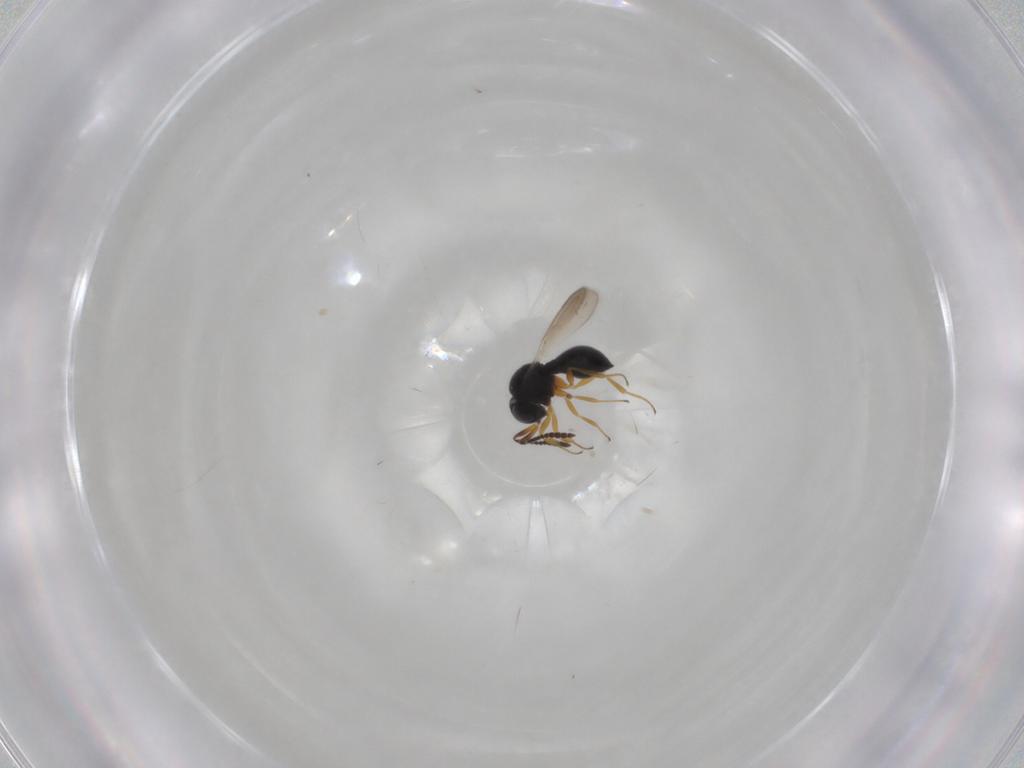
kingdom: Animalia
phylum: Arthropoda
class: Insecta
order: Hymenoptera
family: Scelionidae
